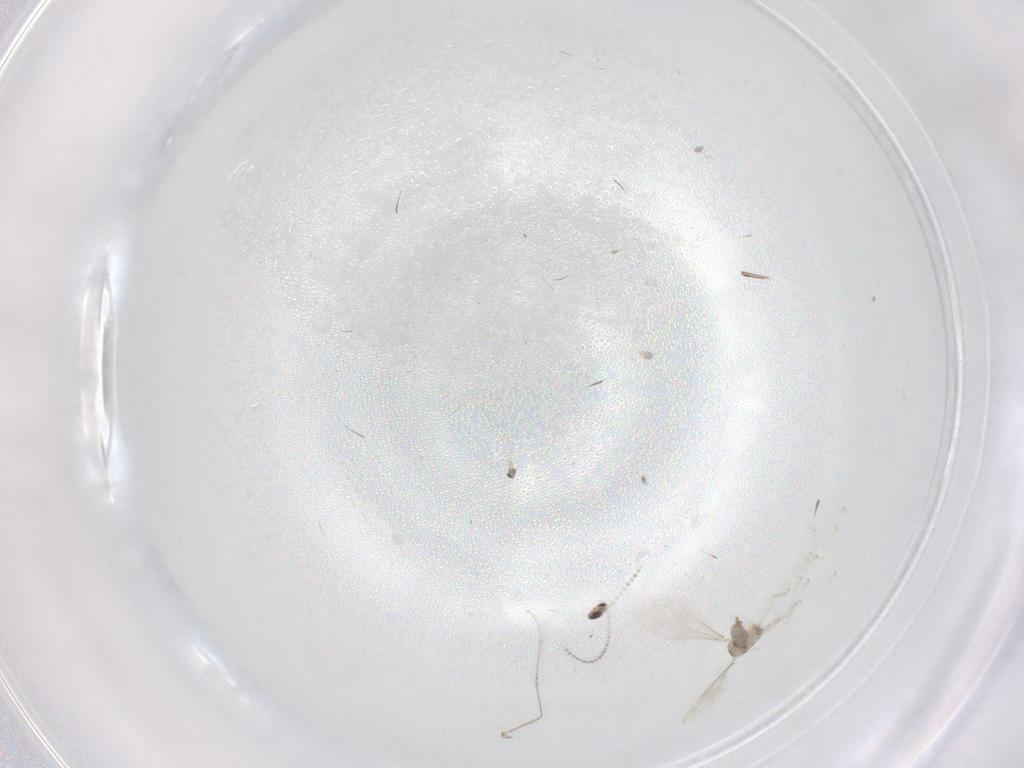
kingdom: Animalia
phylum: Arthropoda
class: Insecta
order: Diptera
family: Cecidomyiidae
